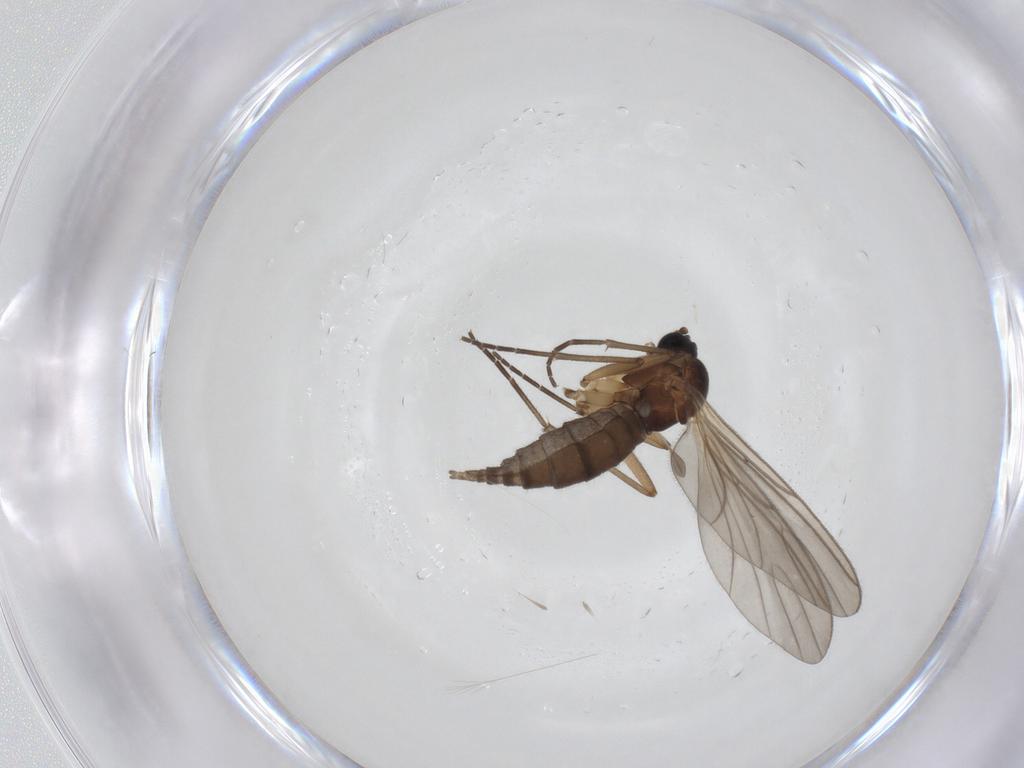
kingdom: Animalia
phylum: Arthropoda
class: Insecta
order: Diptera
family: Sciaridae
